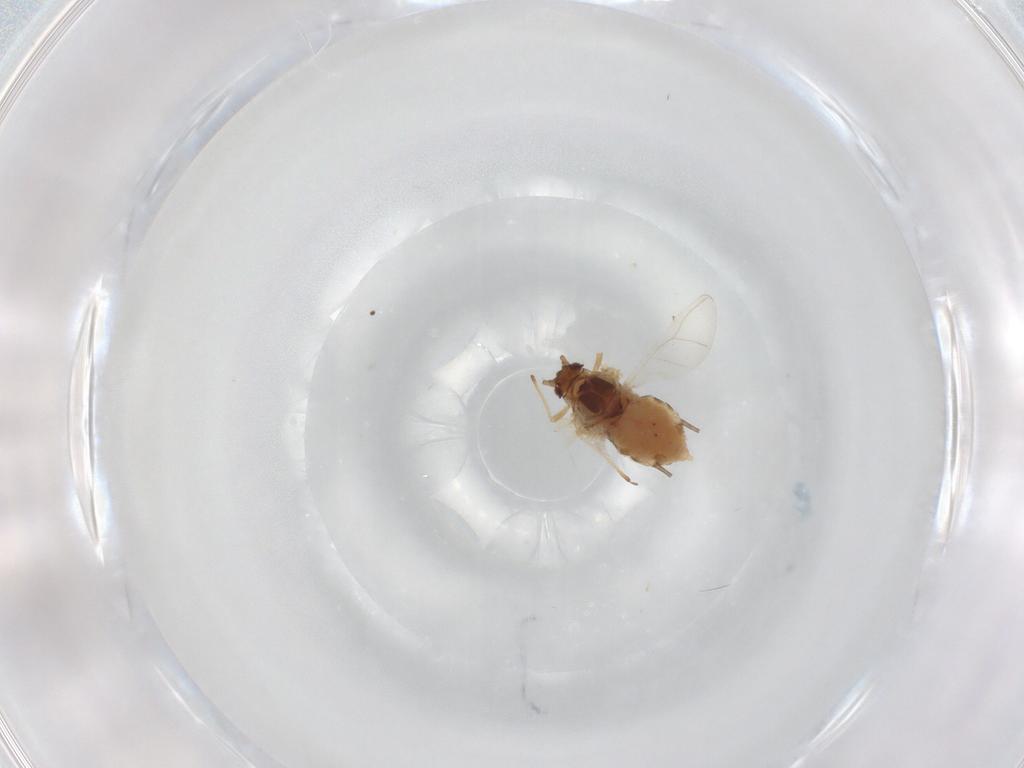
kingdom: Animalia
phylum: Arthropoda
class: Insecta
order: Hemiptera
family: Aphididae
